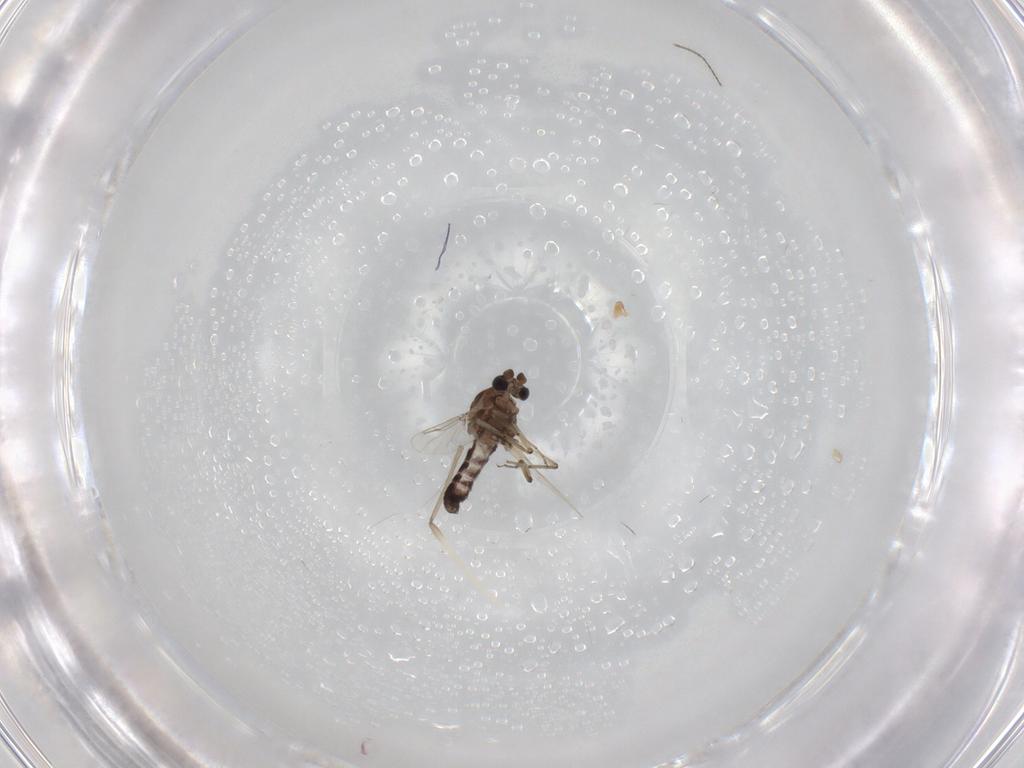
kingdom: Animalia
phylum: Arthropoda
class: Insecta
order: Diptera
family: Ceratopogonidae
